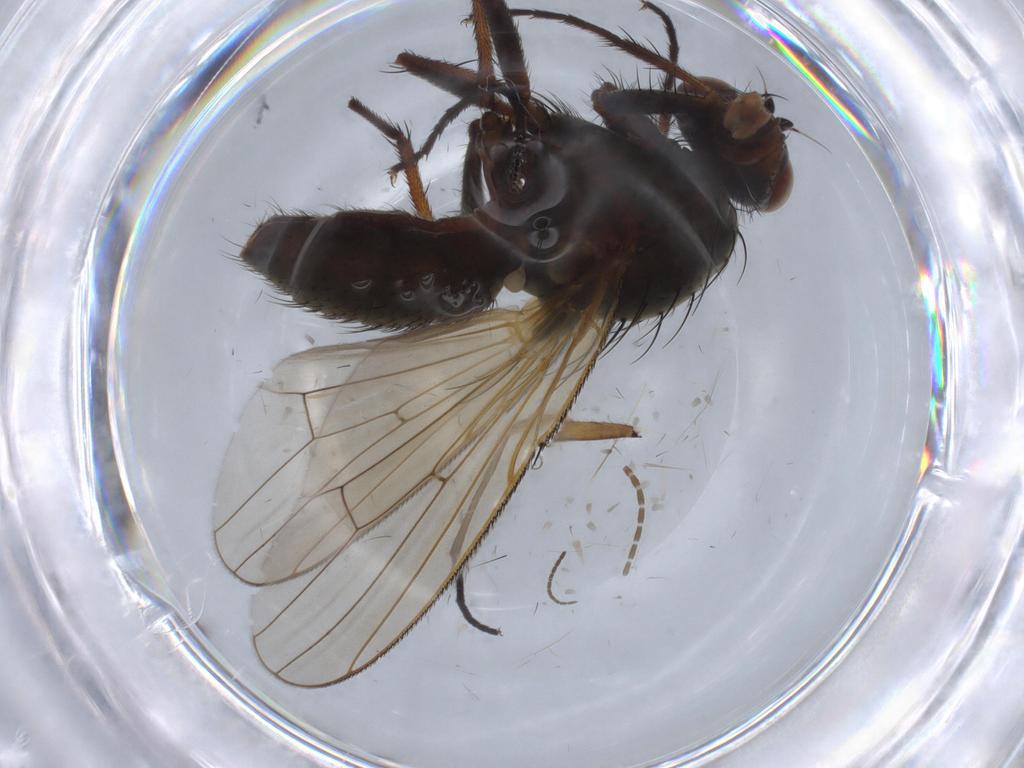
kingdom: Animalia
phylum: Arthropoda
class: Insecta
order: Diptera
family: Anthomyiidae
